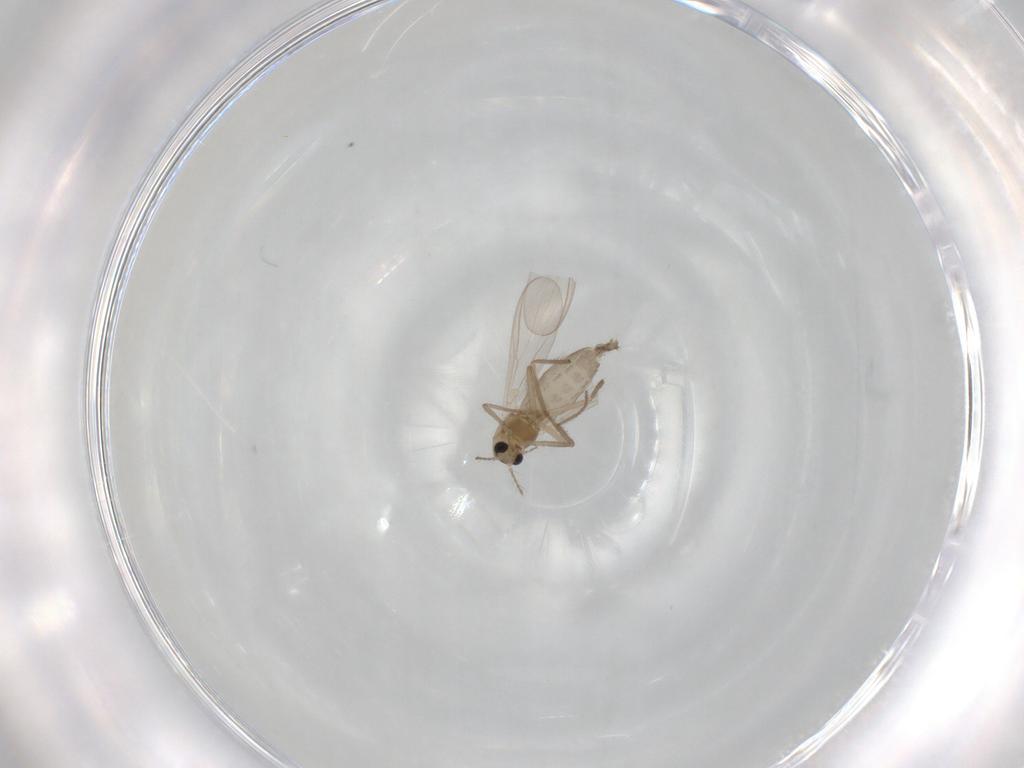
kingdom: Animalia
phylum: Arthropoda
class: Insecta
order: Diptera
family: Chironomidae
